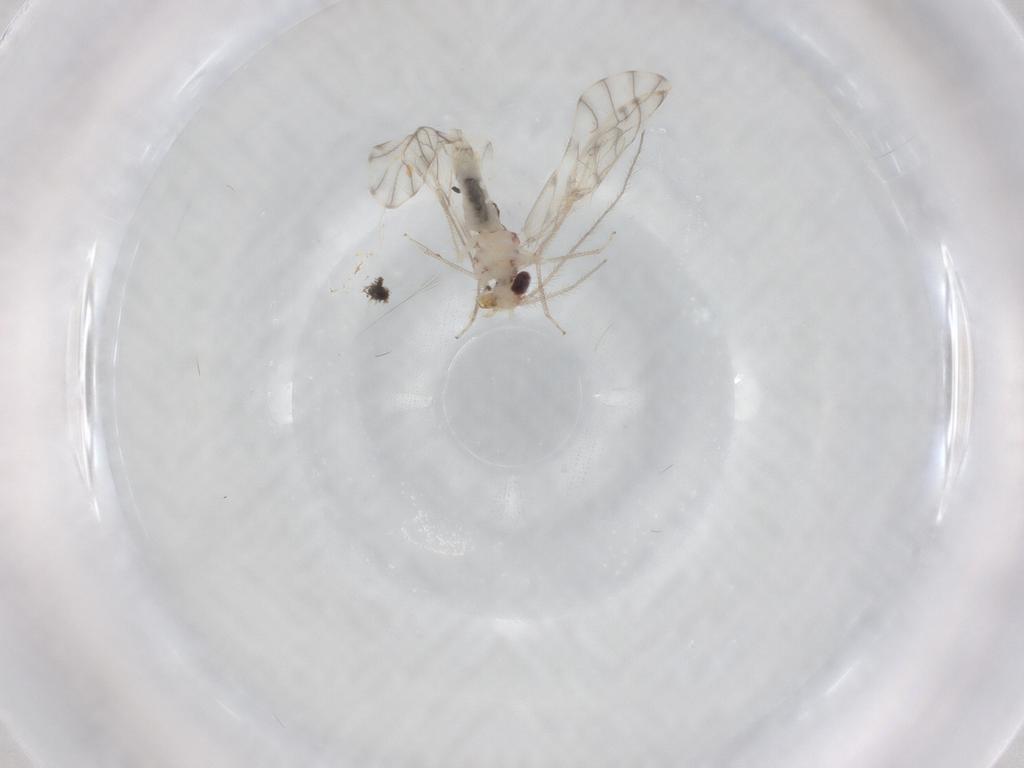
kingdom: Animalia
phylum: Arthropoda
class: Insecta
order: Psocodea
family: Philotarsidae
